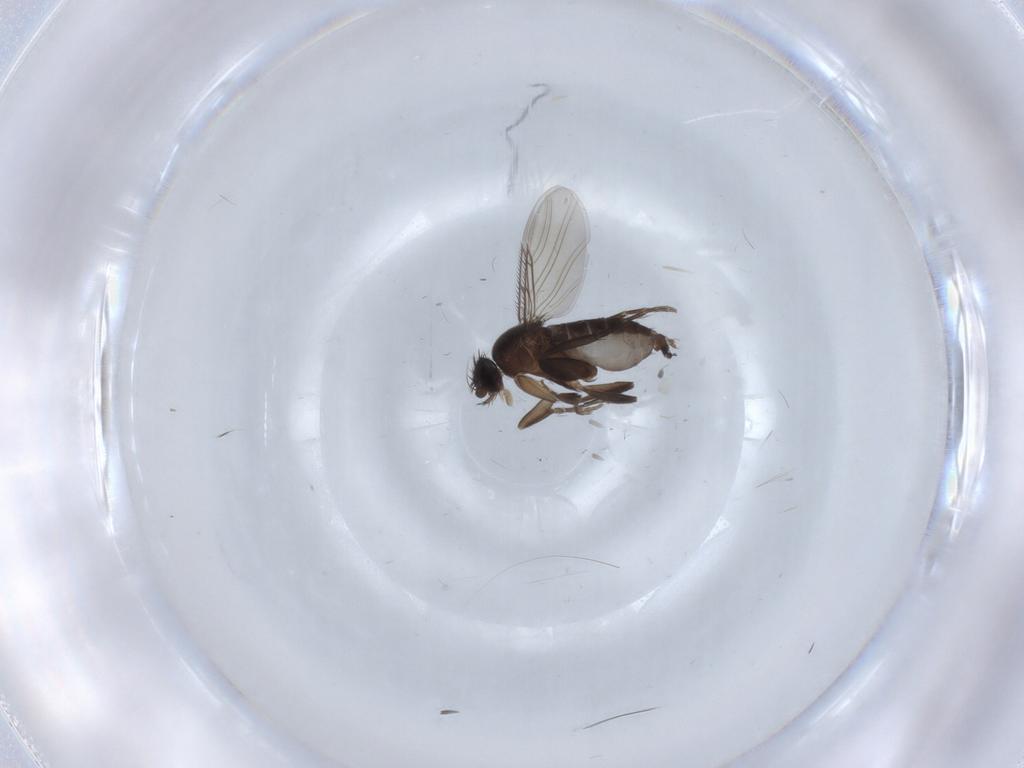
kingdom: Animalia
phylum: Arthropoda
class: Insecta
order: Diptera
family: Phoridae
